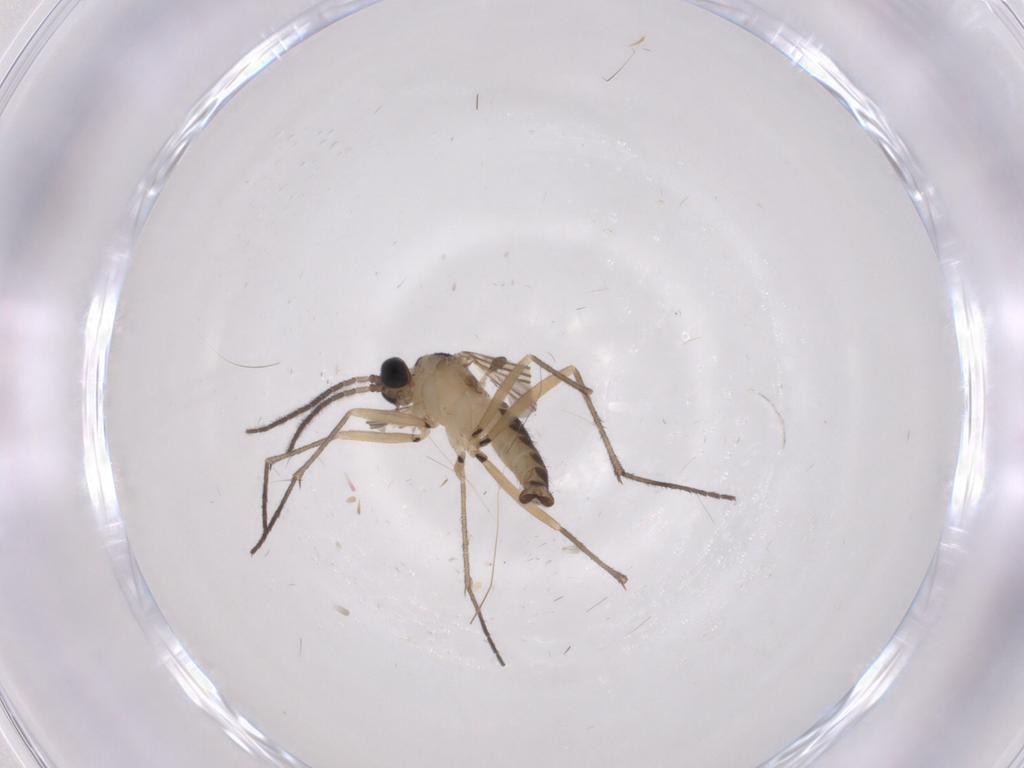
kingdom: Animalia
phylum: Arthropoda
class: Insecta
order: Diptera
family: Sciaridae
